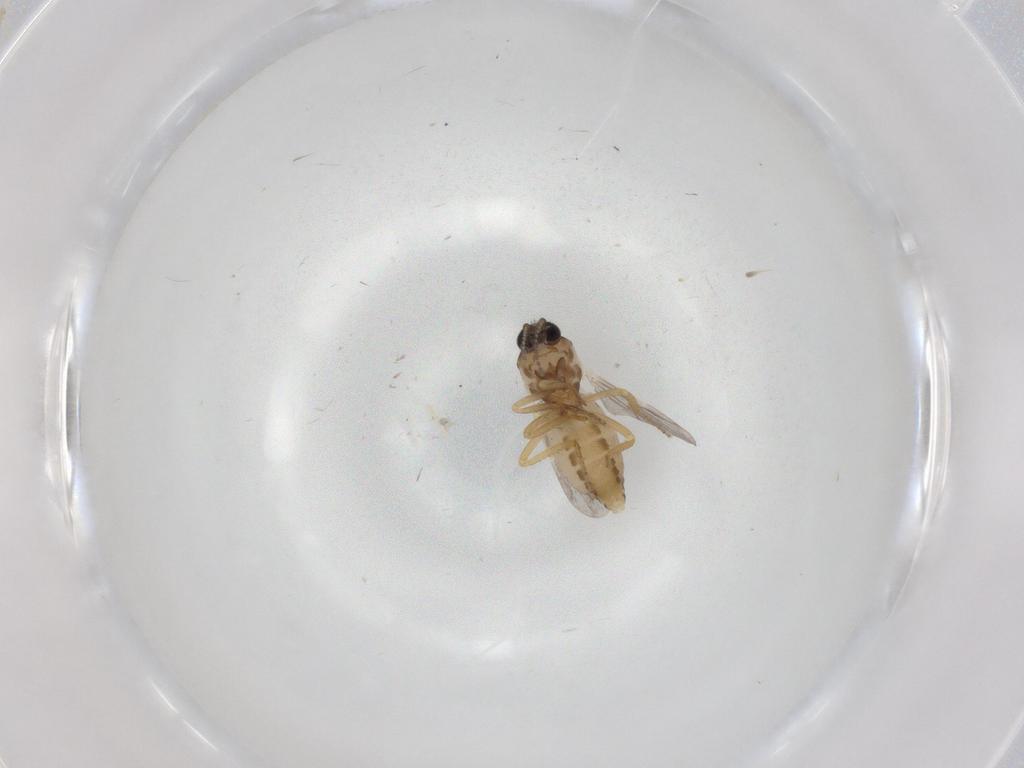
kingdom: Animalia
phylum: Arthropoda
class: Insecta
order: Diptera
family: Ceratopogonidae
